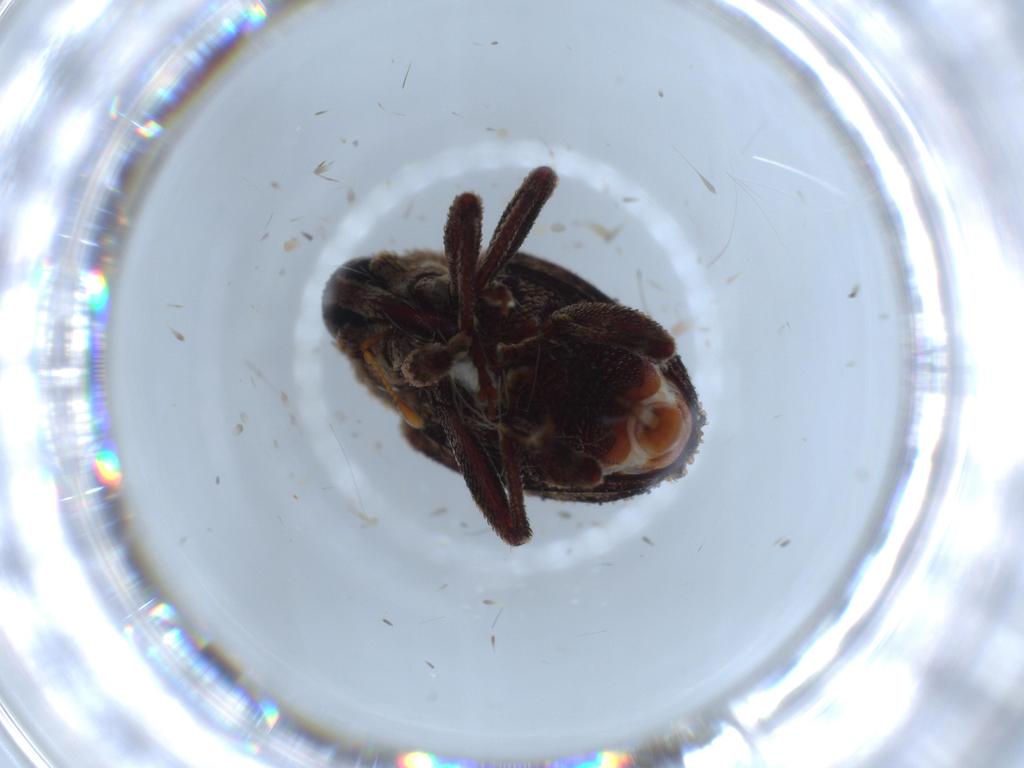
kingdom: Animalia
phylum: Arthropoda
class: Insecta
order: Coleoptera
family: Curculionidae
